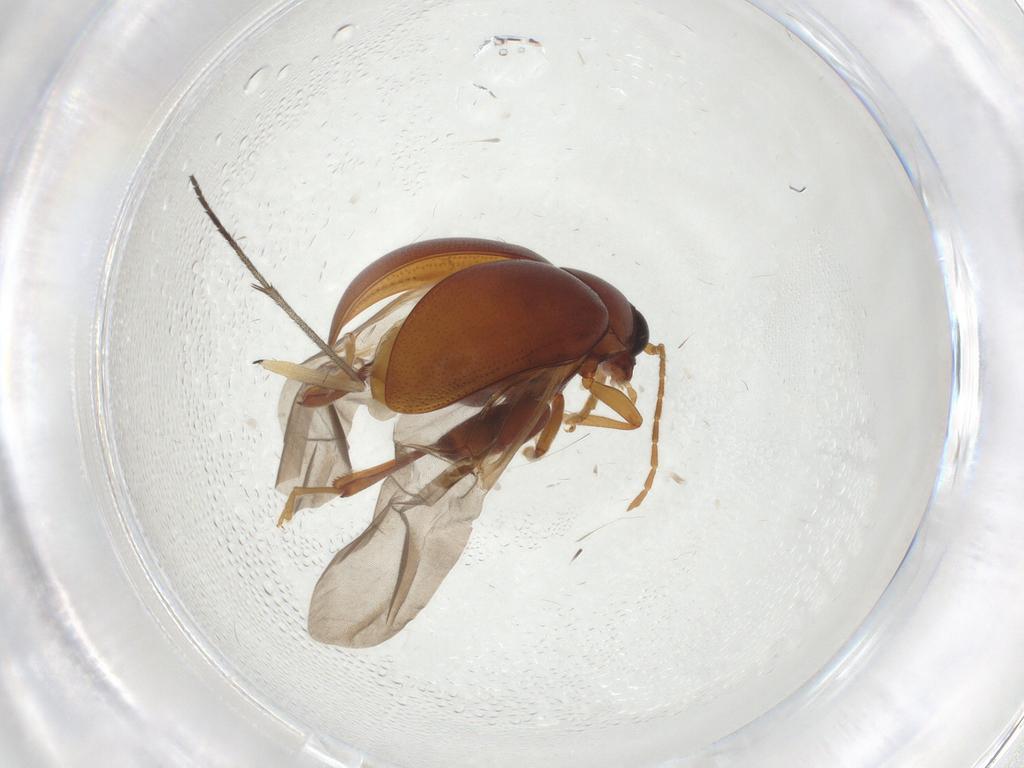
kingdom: Animalia
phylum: Arthropoda
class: Insecta
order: Coleoptera
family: Chrysomelidae
